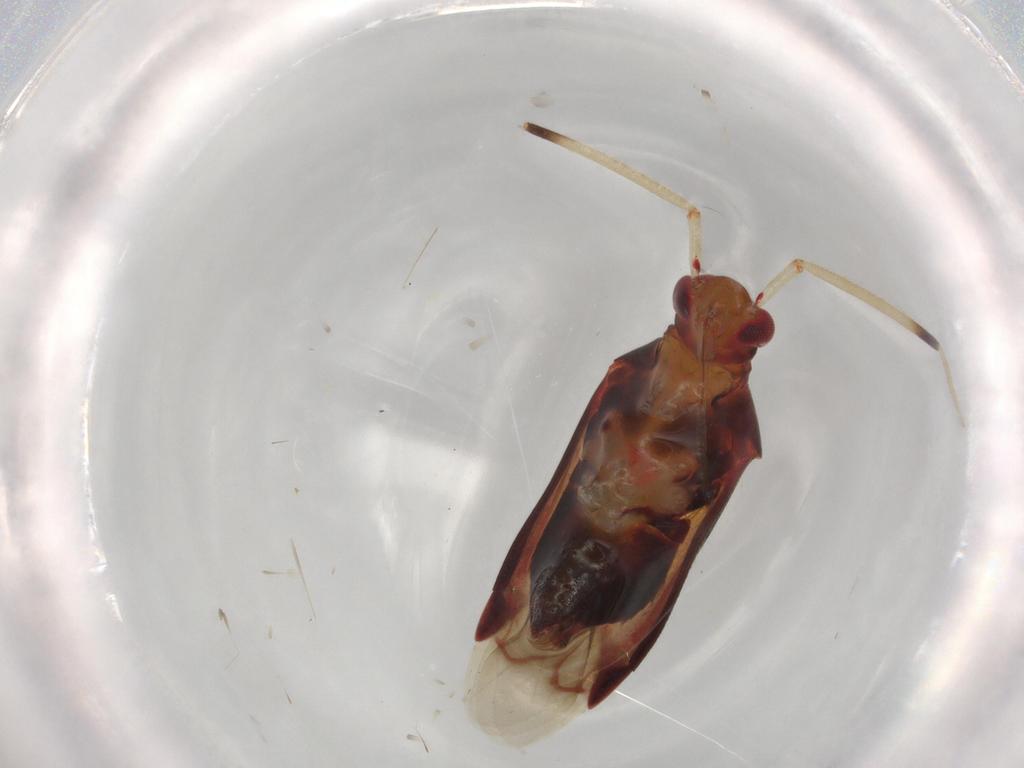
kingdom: Animalia
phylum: Arthropoda
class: Insecta
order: Hemiptera
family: Miridae
